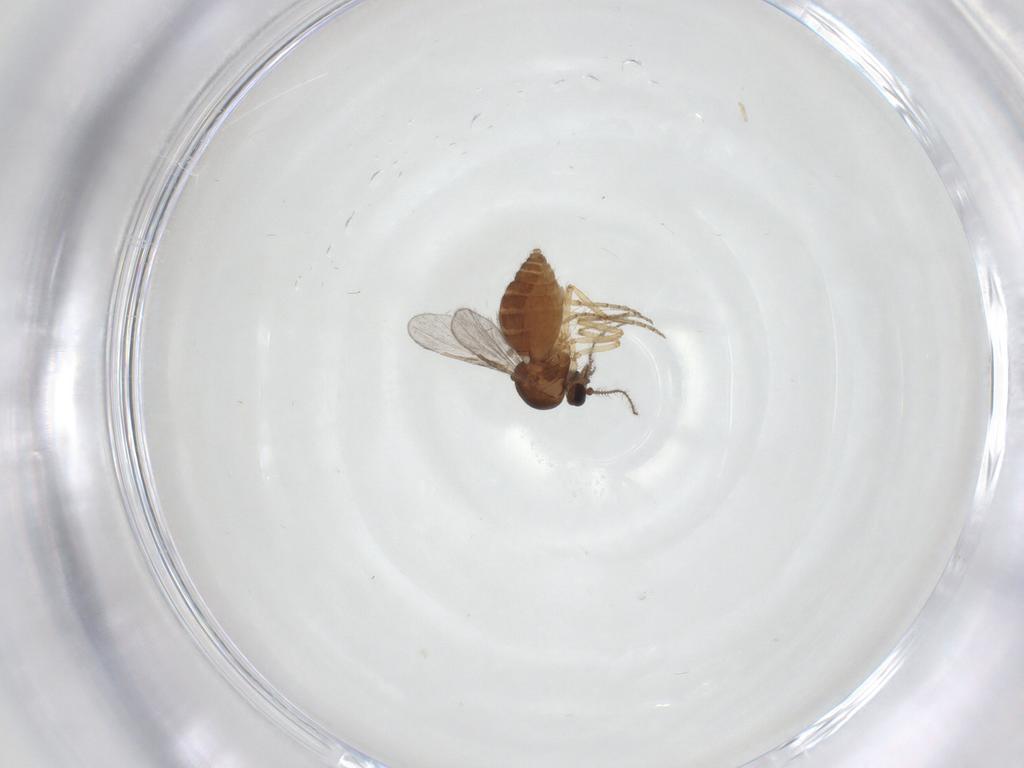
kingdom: Animalia
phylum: Arthropoda
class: Insecta
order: Diptera
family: Ceratopogonidae
